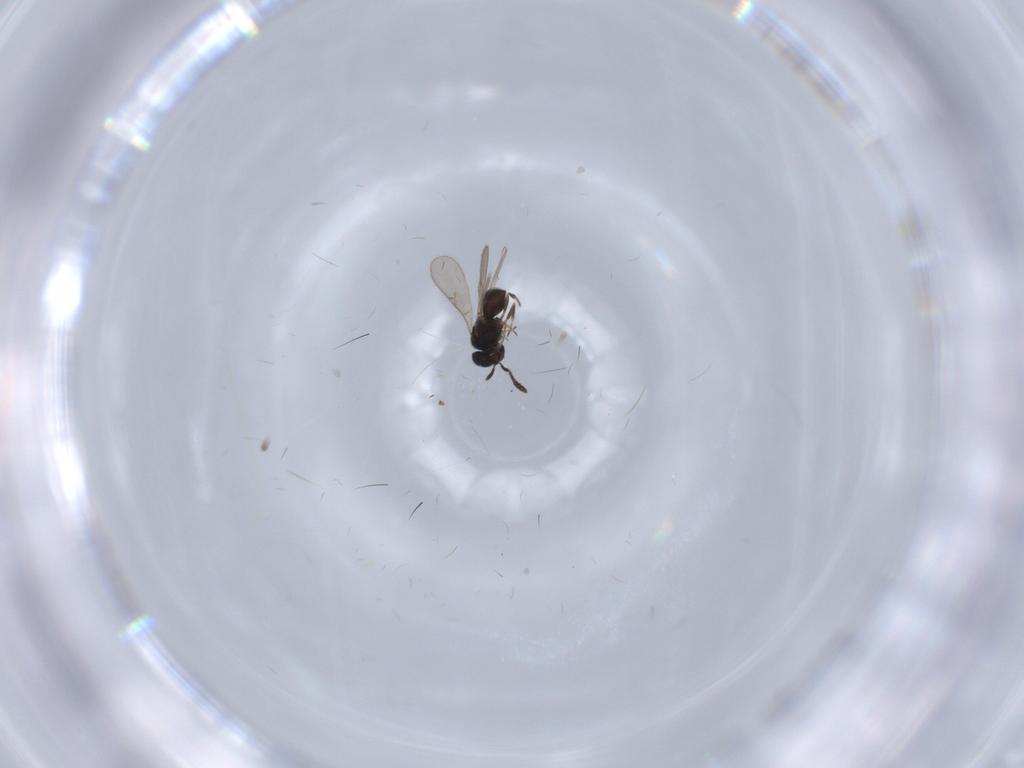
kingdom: Animalia
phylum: Arthropoda
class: Insecta
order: Hymenoptera
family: Scelionidae
